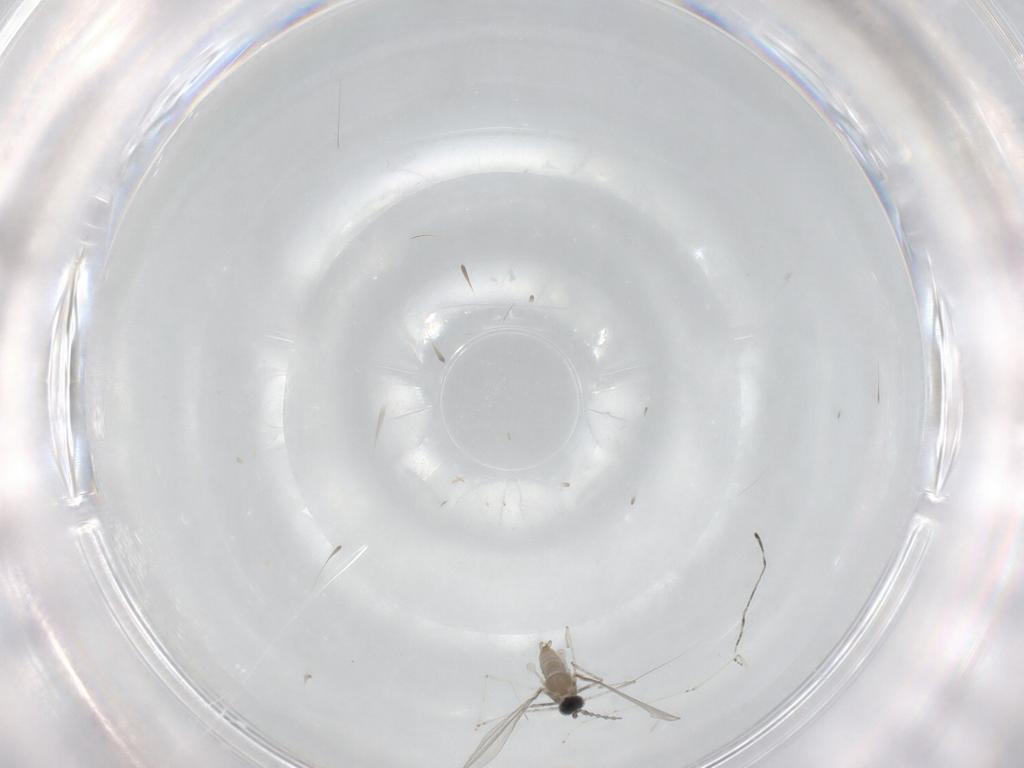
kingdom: Animalia
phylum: Arthropoda
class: Insecta
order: Diptera
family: Cecidomyiidae
